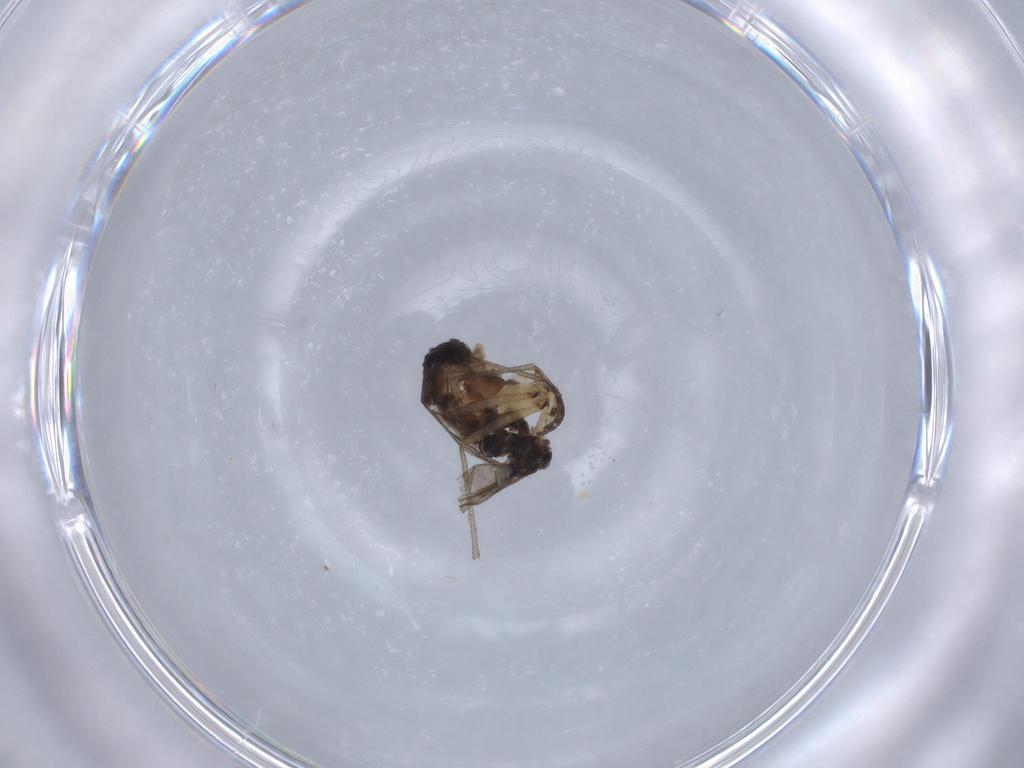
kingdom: Animalia
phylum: Arthropoda
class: Insecta
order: Diptera
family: Sciaridae
